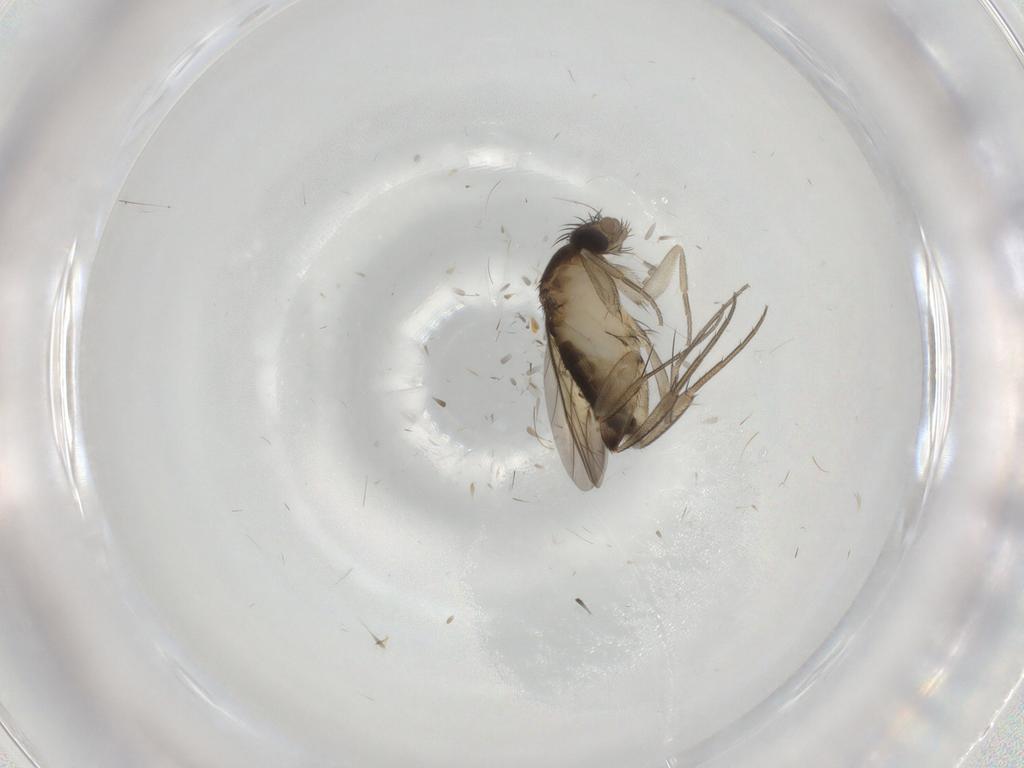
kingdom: Animalia
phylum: Arthropoda
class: Insecta
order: Diptera
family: Phoridae
